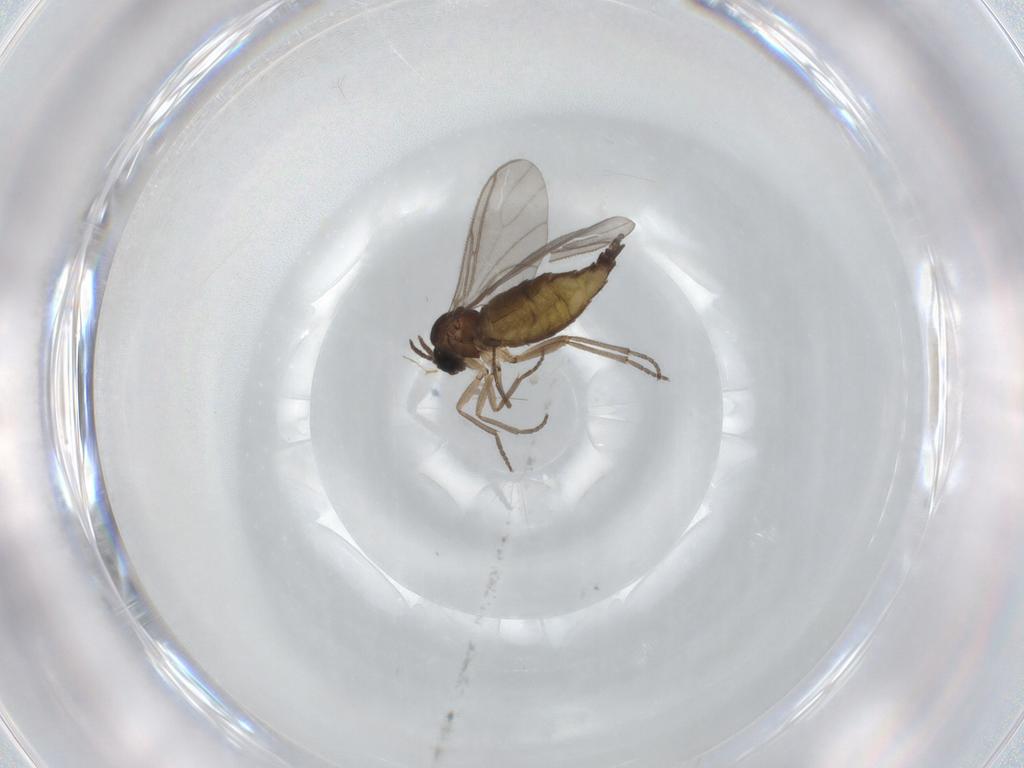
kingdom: Animalia
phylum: Arthropoda
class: Insecta
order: Diptera
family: Sciaridae
